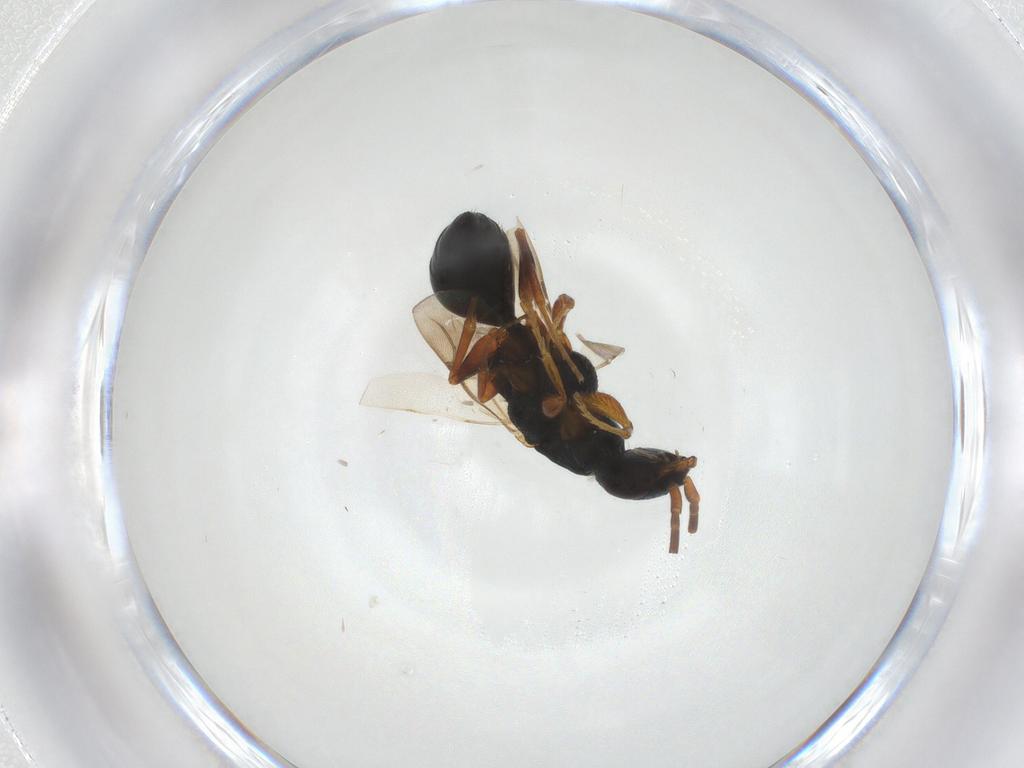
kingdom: Animalia
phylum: Arthropoda
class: Insecta
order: Hymenoptera
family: Bethylidae
